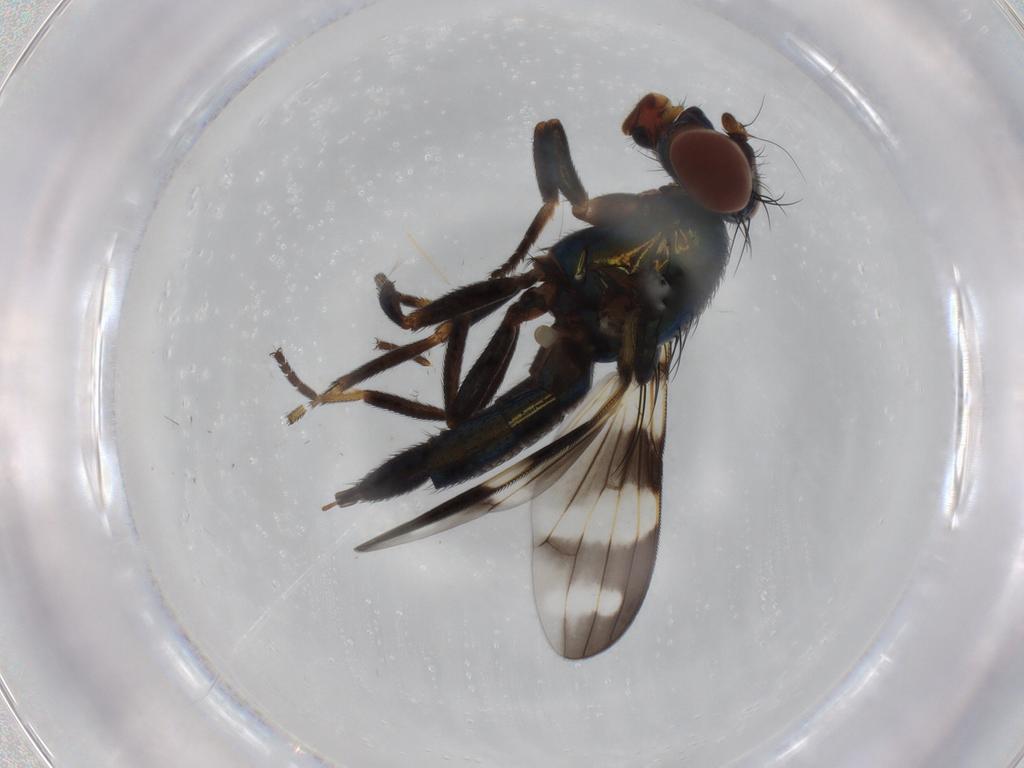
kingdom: Animalia
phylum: Arthropoda
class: Insecta
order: Diptera
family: Ulidiidae
